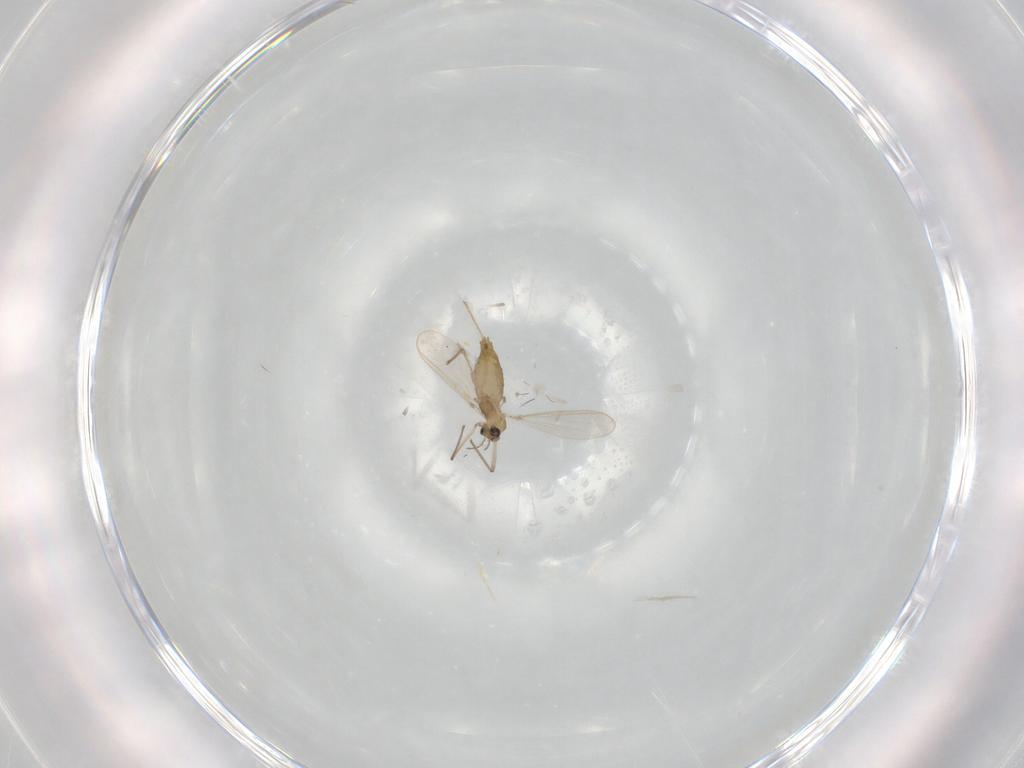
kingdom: Animalia
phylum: Arthropoda
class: Insecta
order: Diptera
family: Chironomidae
